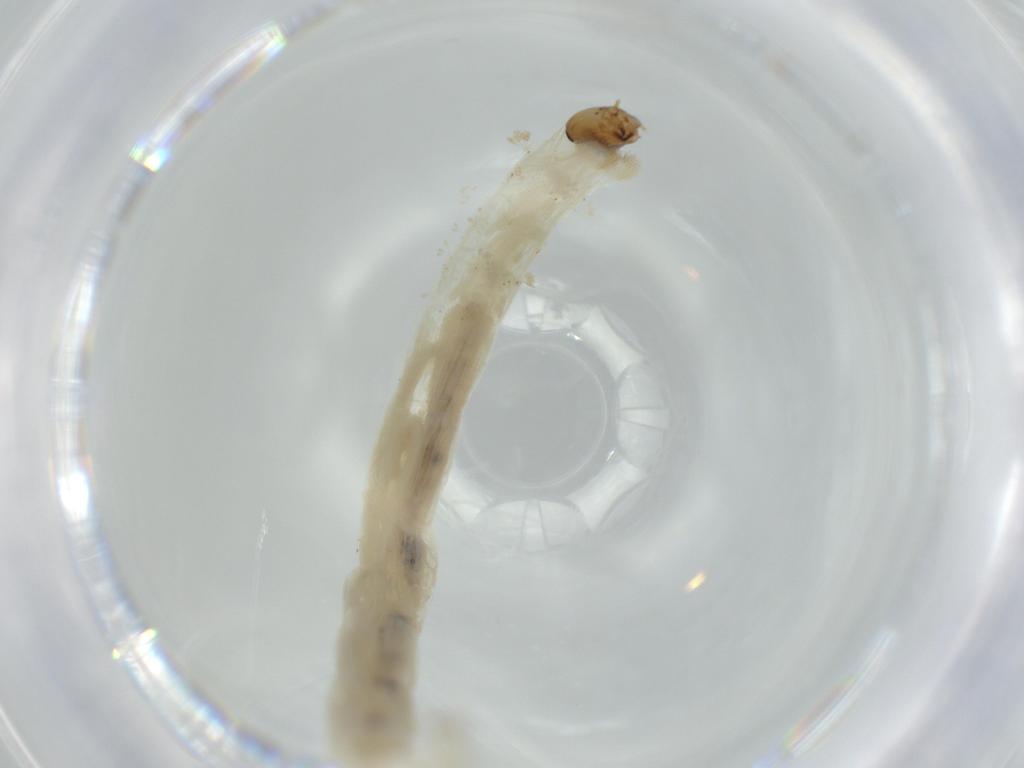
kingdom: Animalia
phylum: Arthropoda
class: Insecta
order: Diptera
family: Chironomidae
